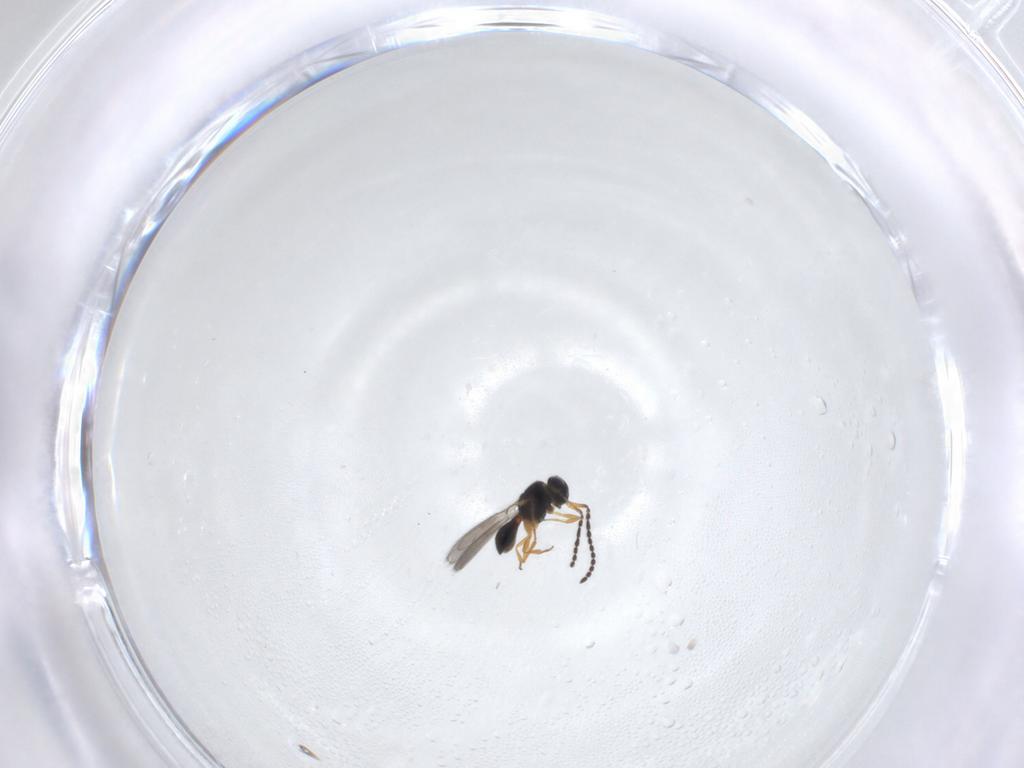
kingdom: Animalia
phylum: Arthropoda
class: Insecta
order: Hymenoptera
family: Scelionidae
